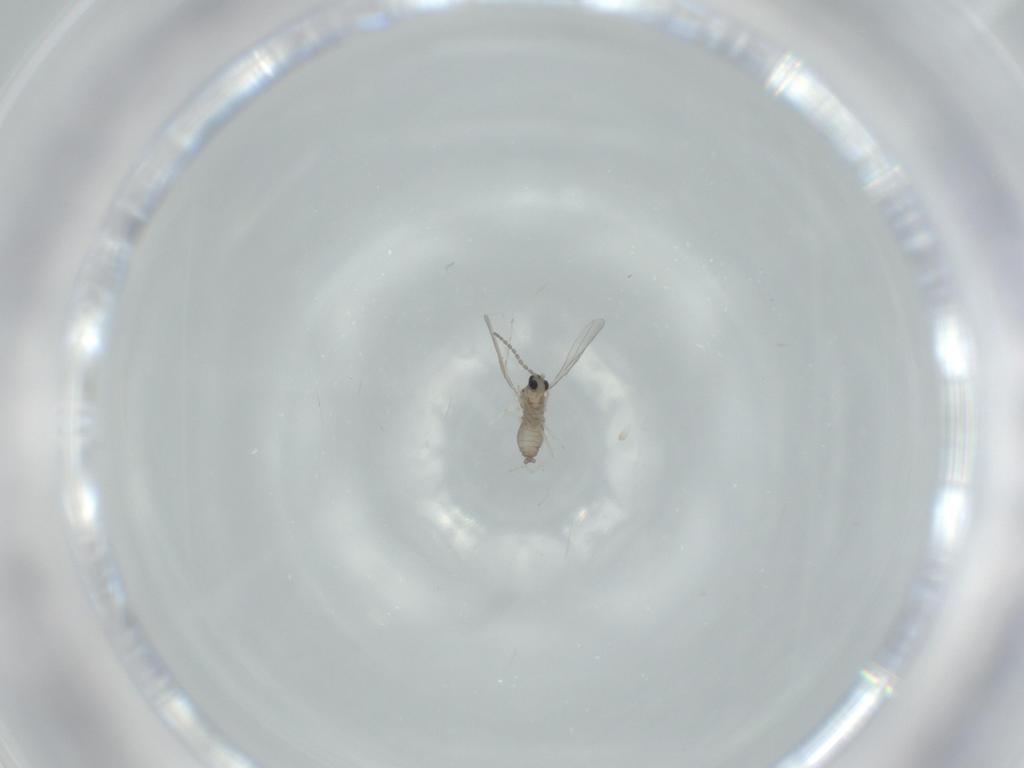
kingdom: Animalia
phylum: Arthropoda
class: Insecta
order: Diptera
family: Cecidomyiidae
